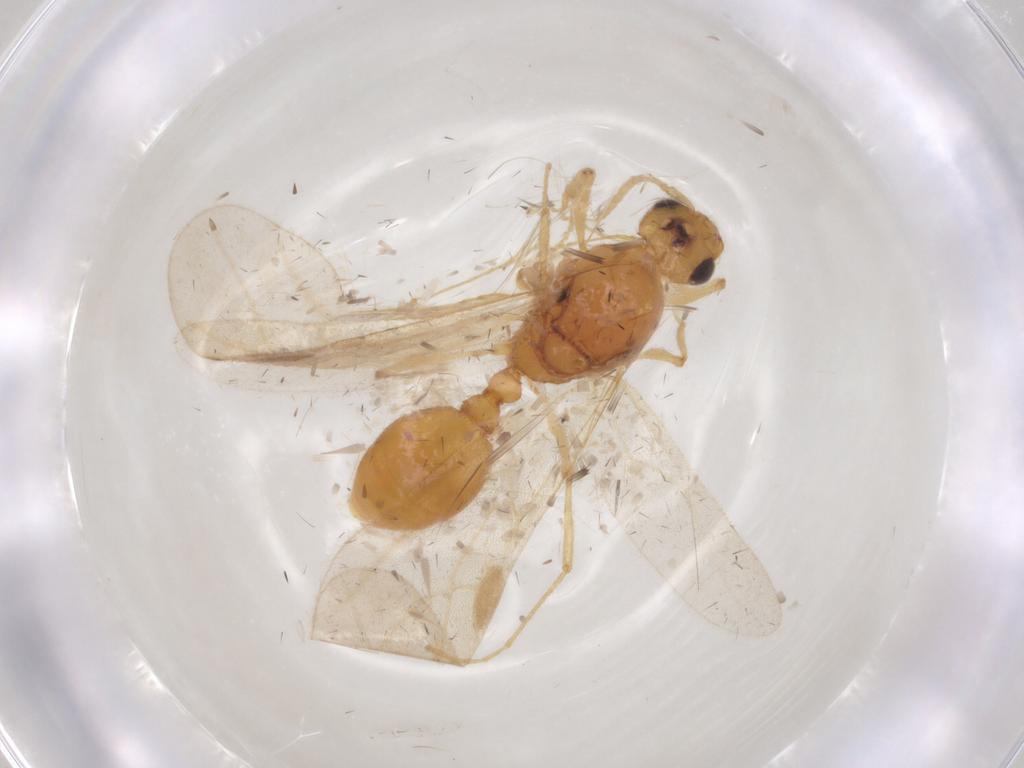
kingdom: Animalia
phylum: Arthropoda
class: Insecta
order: Hymenoptera
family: Formicidae
